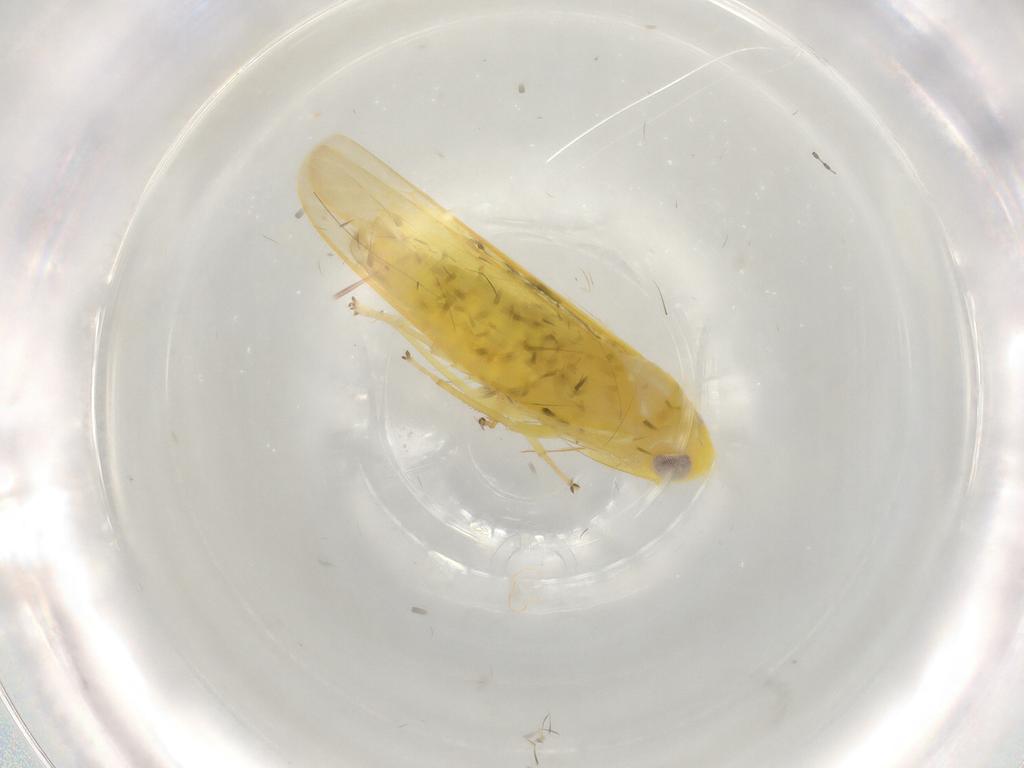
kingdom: Animalia
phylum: Arthropoda
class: Insecta
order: Hemiptera
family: Cicadellidae
